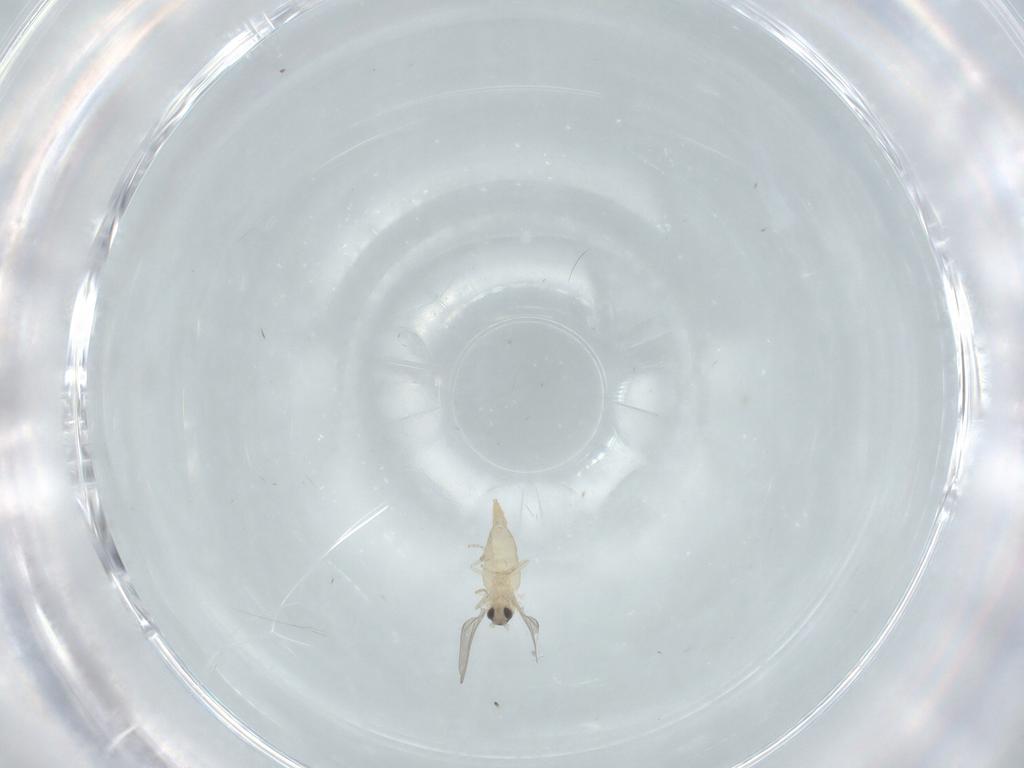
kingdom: Animalia
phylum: Arthropoda
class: Insecta
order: Diptera
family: Cecidomyiidae
